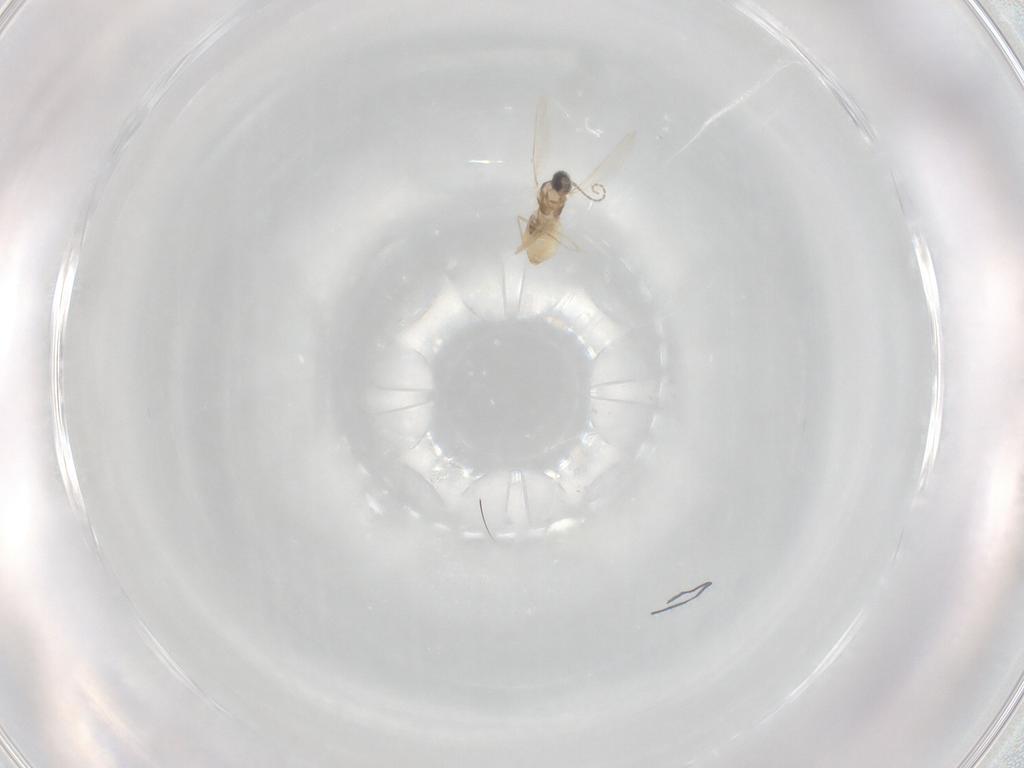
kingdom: Animalia
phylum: Arthropoda
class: Insecta
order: Diptera
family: Cecidomyiidae
